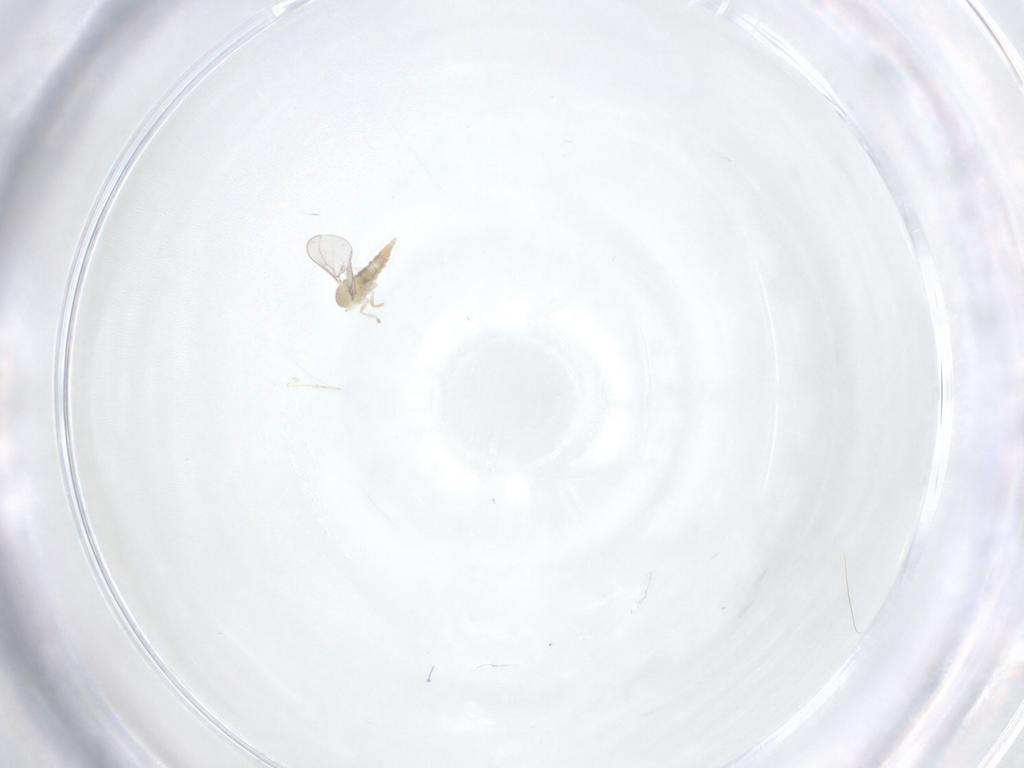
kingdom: Animalia
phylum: Arthropoda
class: Insecta
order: Diptera
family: Cecidomyiidae
